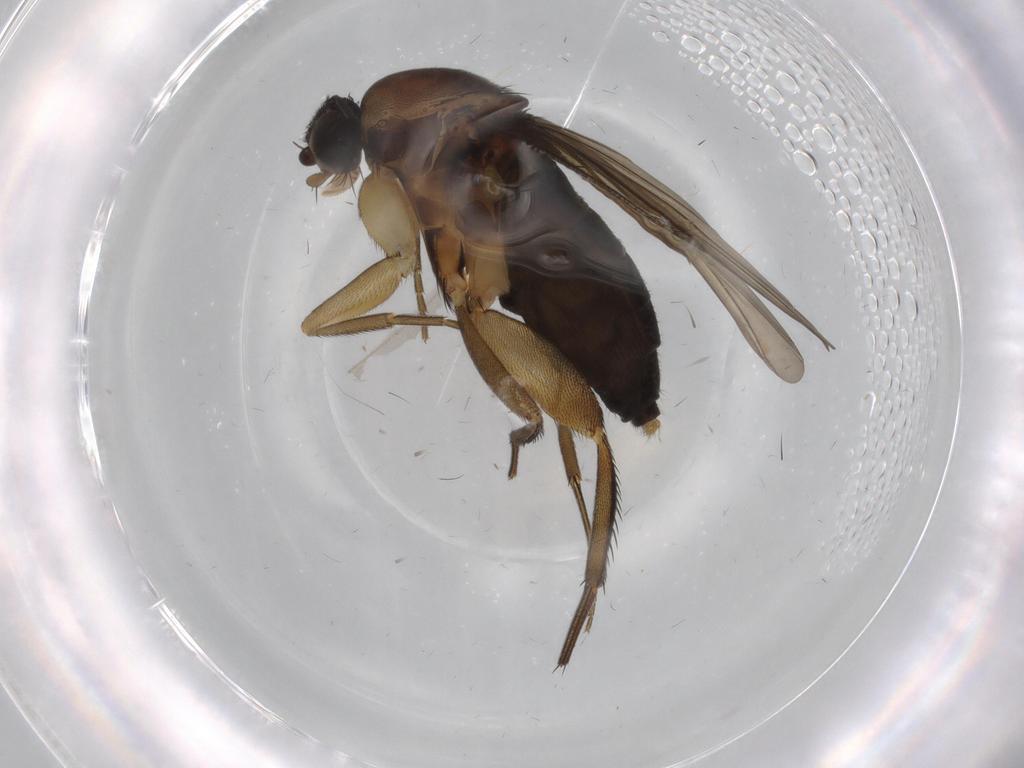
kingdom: Animalia
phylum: Arthropoda
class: Insecta
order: Diptera
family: Phoridae
